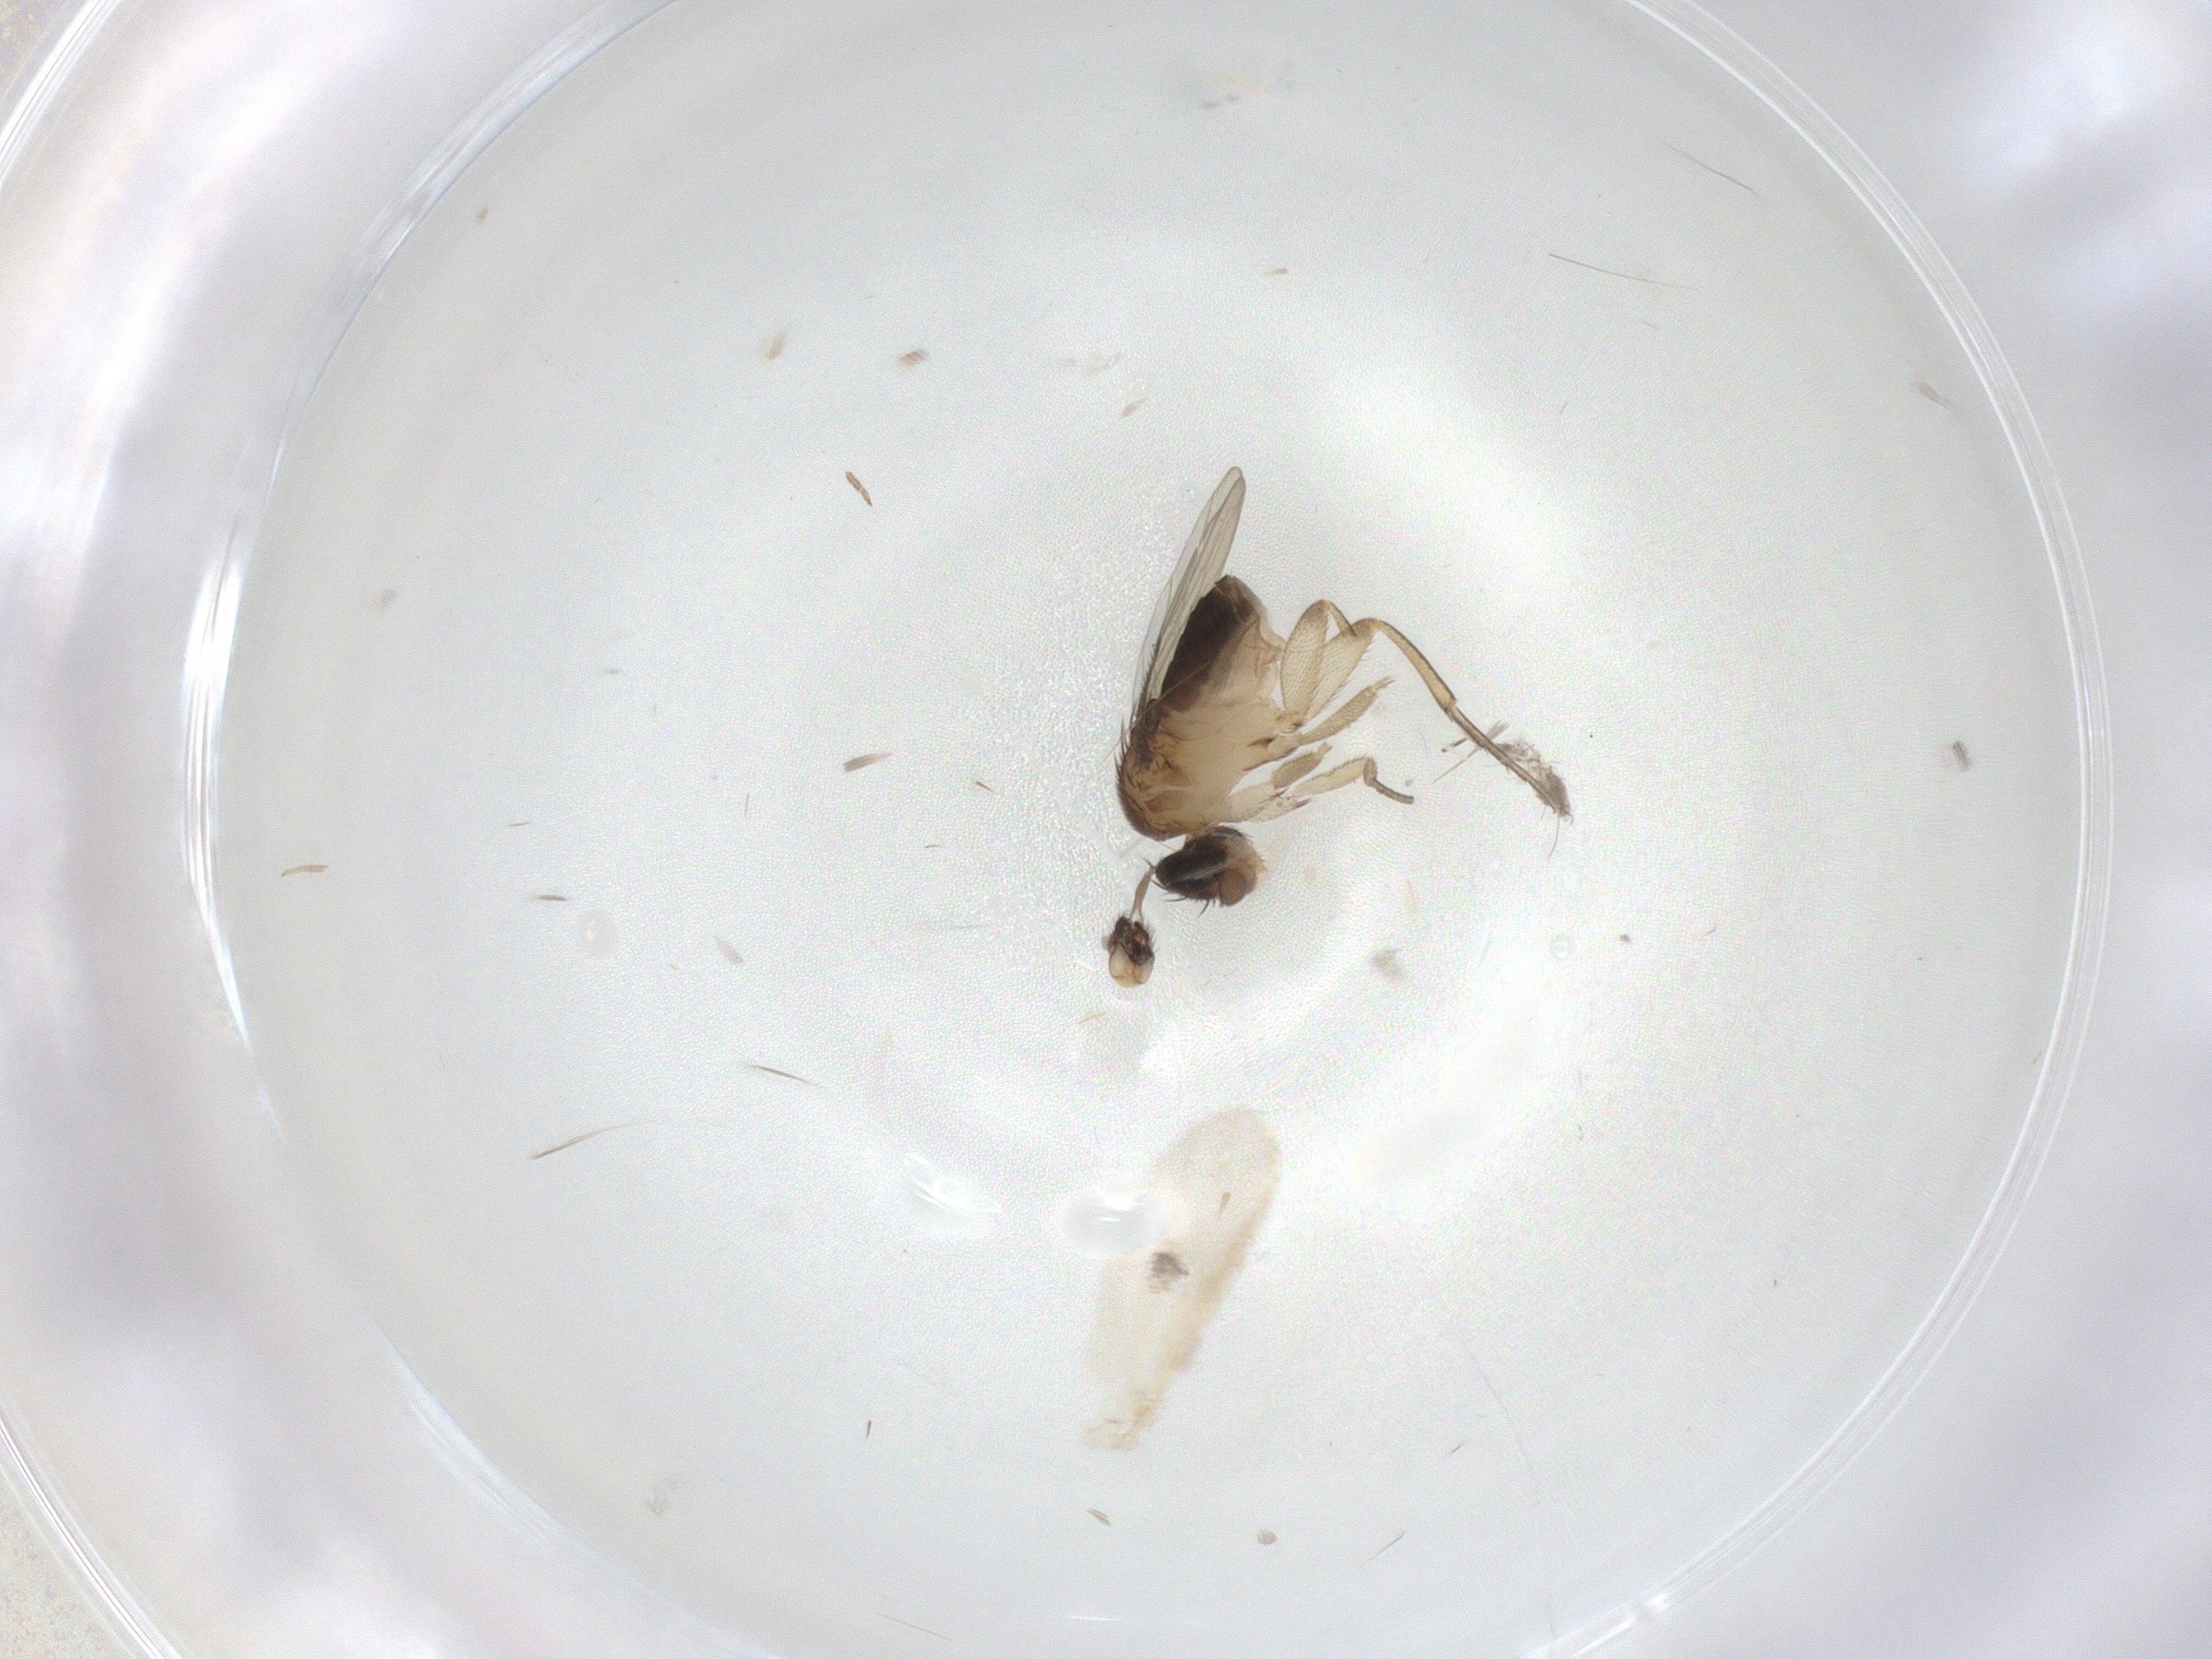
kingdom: Animalia
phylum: Arthropoda
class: Insecta
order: Diptera
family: Ceratopogonidae
